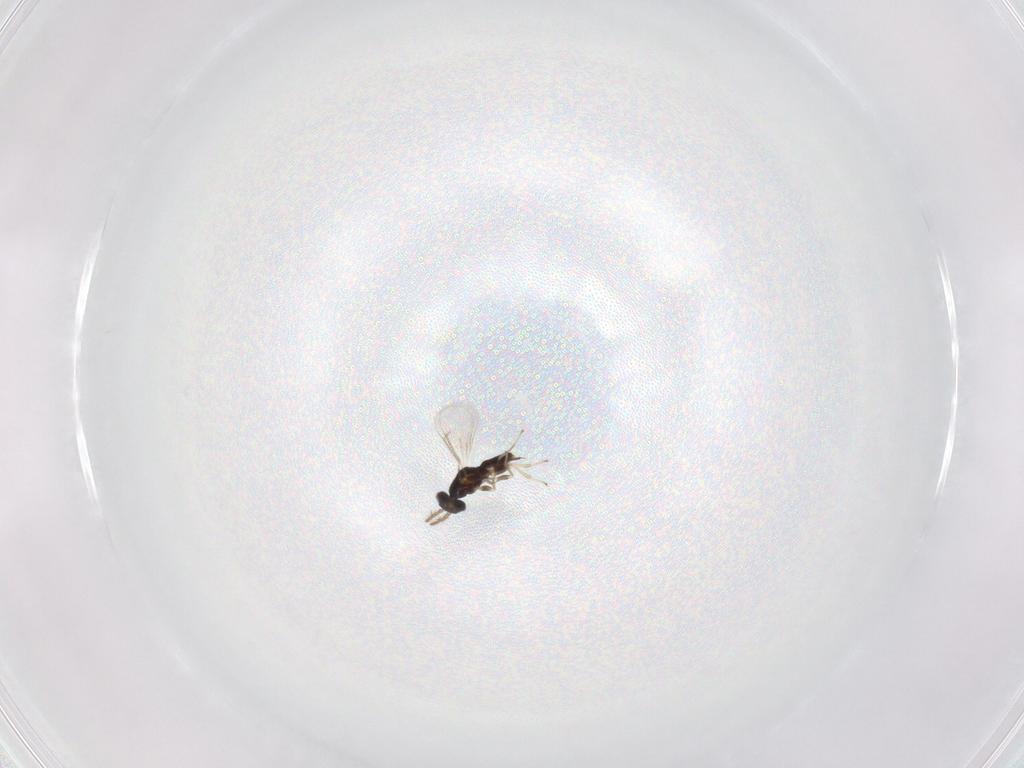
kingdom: Animalia
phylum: Arthropoda
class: Insecta
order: Hymenoptera
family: Eulophidae
